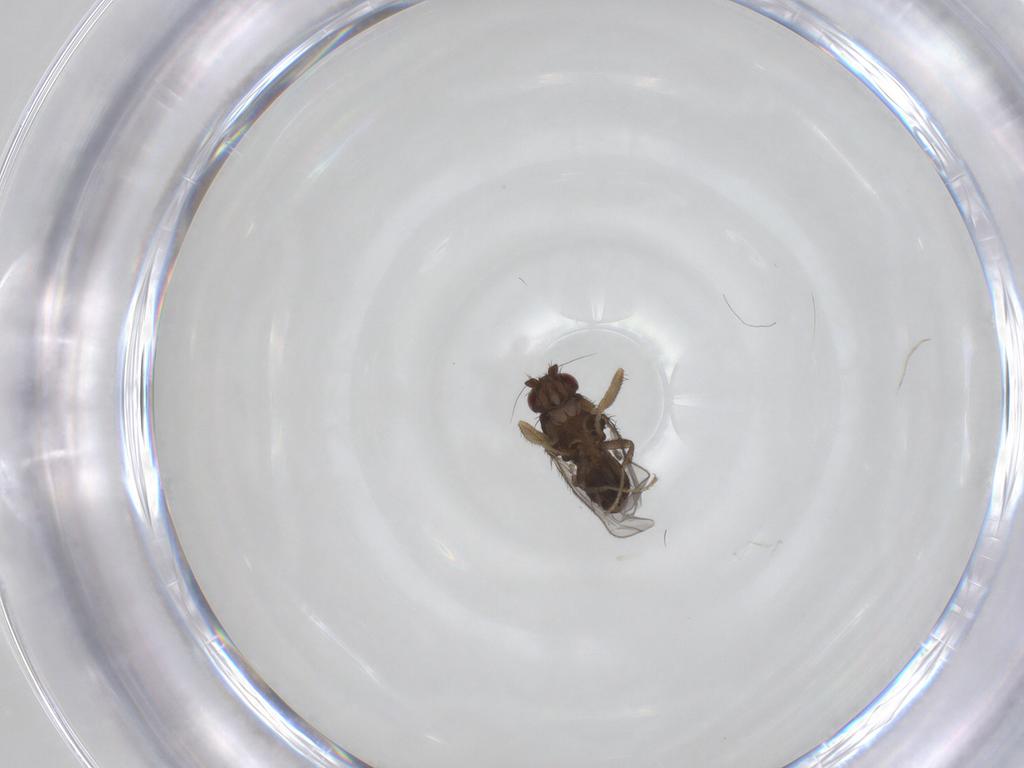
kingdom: Animalia
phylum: Arthropoda
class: Insecta
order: Diptera
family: Sphaeroceridae
